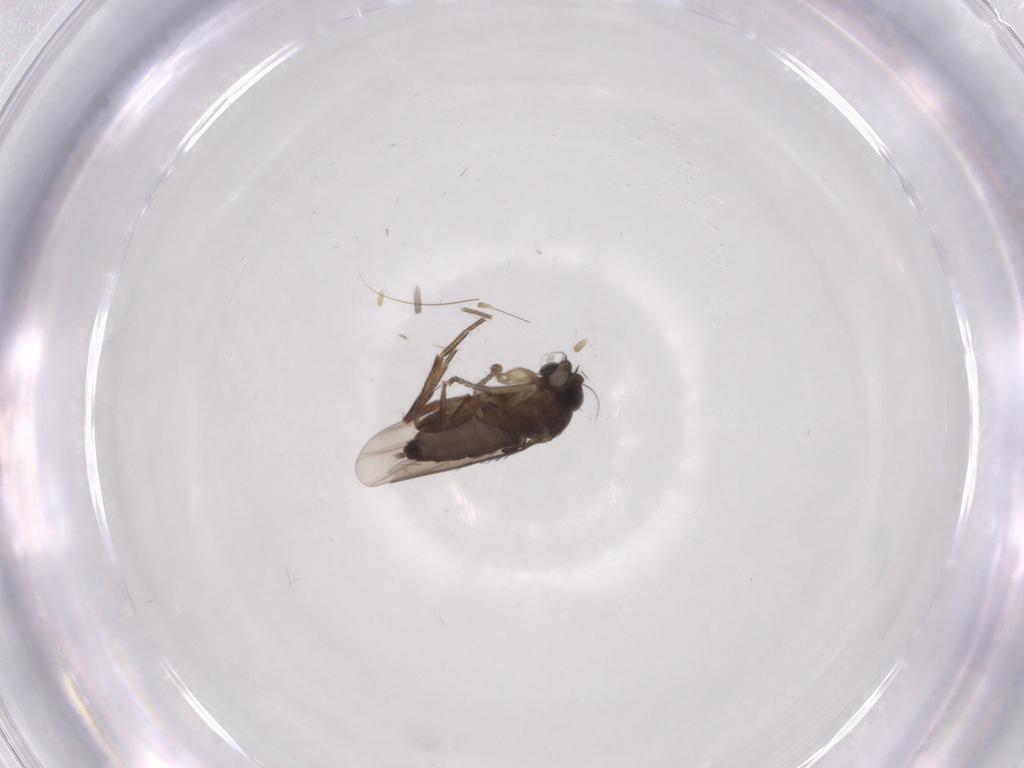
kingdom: Animalia
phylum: Arthropoda
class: Insecta
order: Diptera
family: Phoridae
